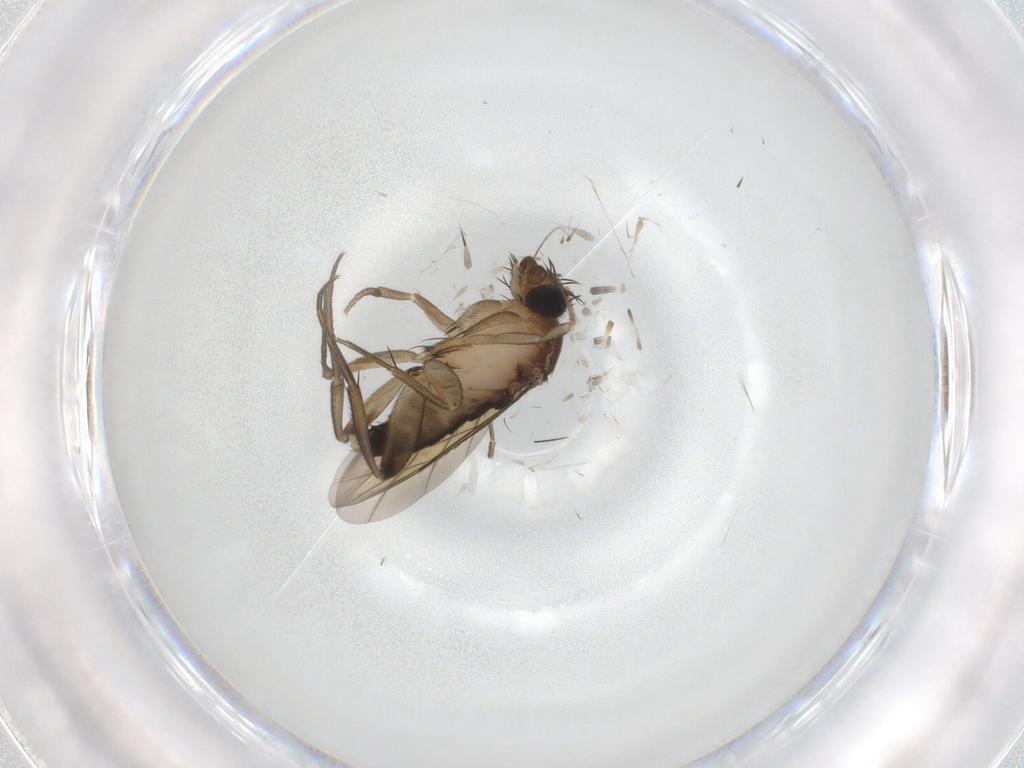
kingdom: Animalia
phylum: Arthropoda
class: Insecta
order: Diptera
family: Phoridae
